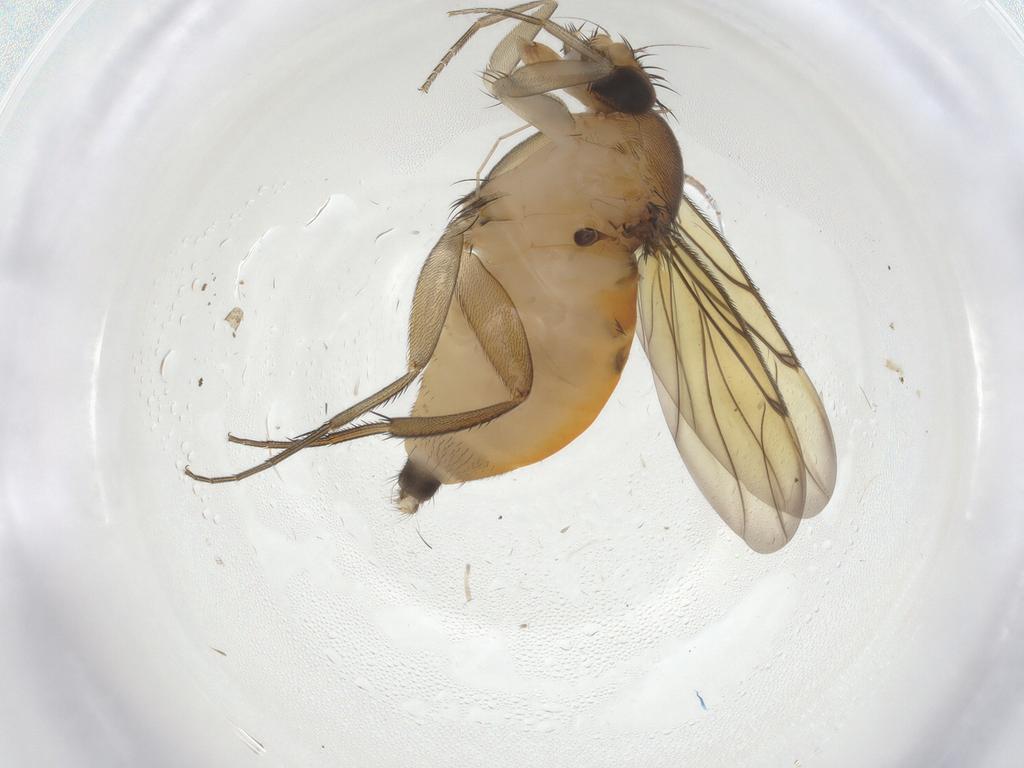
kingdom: Animalia
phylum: Arthropoda
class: Insecta
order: Diptera
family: Cecidomyiidae
